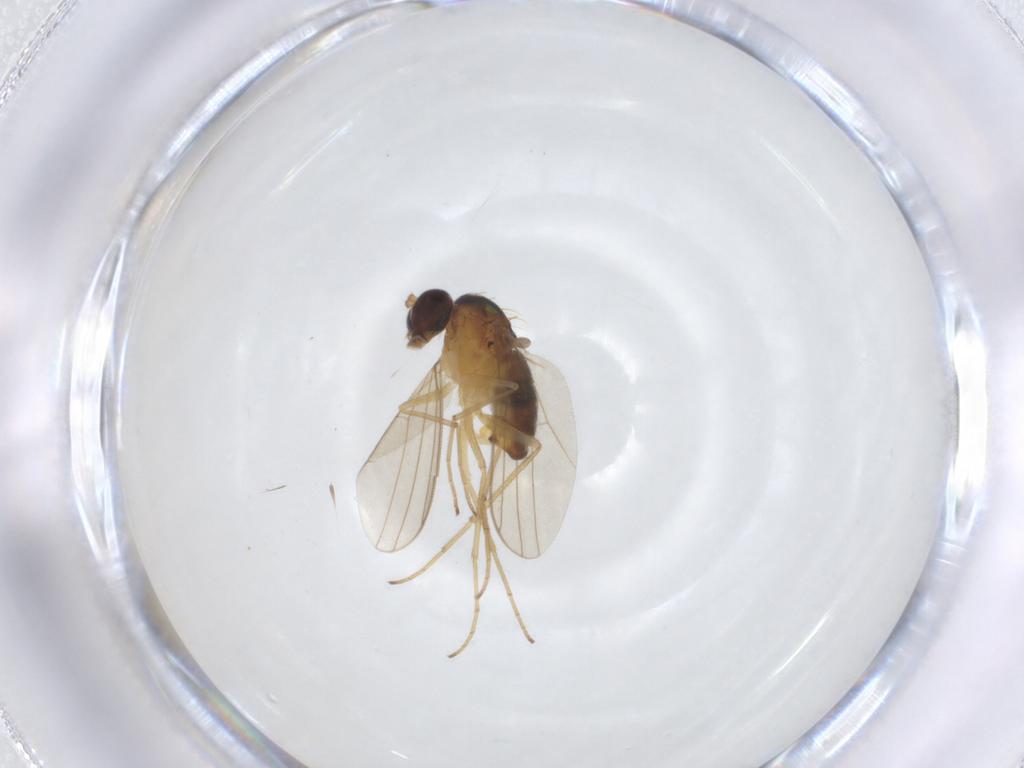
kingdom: Animalia
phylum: Arthropoda
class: Insecta
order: Diptera
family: Dolichopodidae
